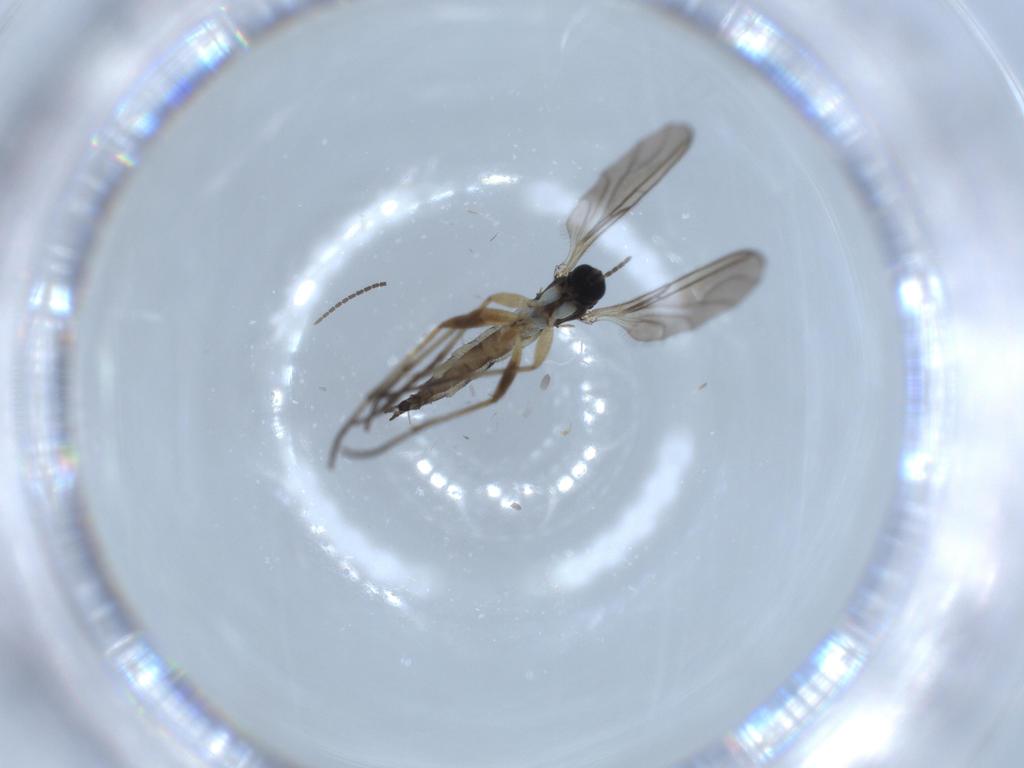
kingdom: Animalia
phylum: Arthropoda
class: Insecta
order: Diptera
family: Sciaridae
